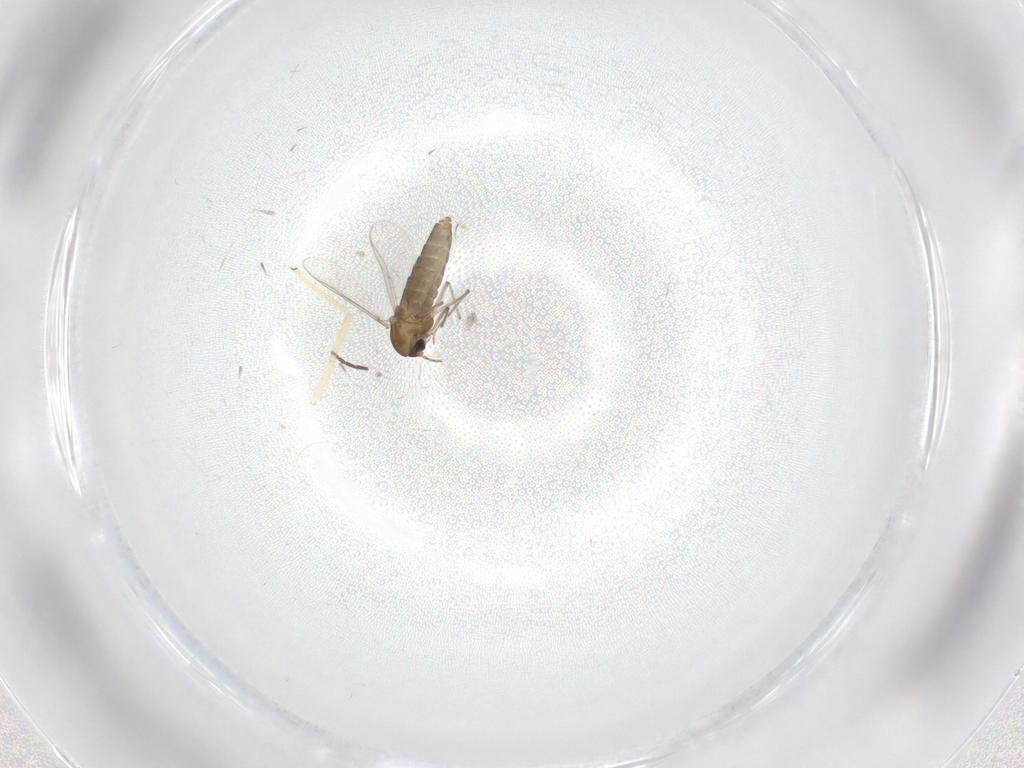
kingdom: Animalia
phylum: Arthropoda
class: Insecta
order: Diptera
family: Chironomidae
